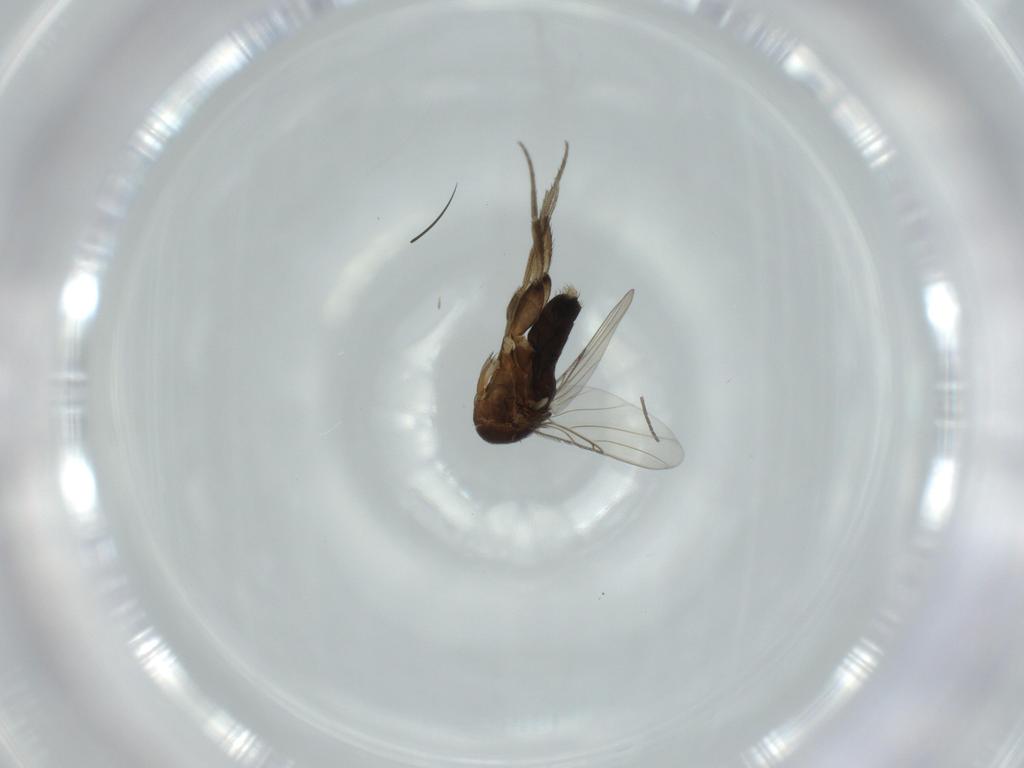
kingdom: Animalia
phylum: Arthropoda
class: Insecta
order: Diptera
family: Phoridae
